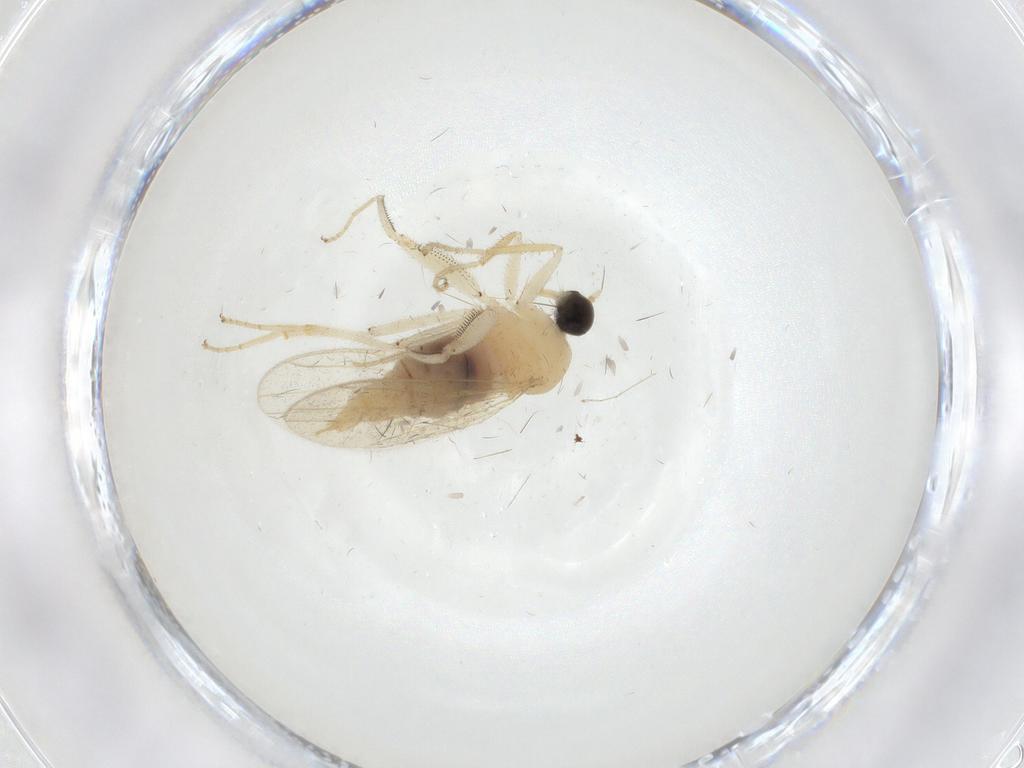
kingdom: Animalia
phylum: Arthropoda
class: Insecta
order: Diptera
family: Hybotidae
